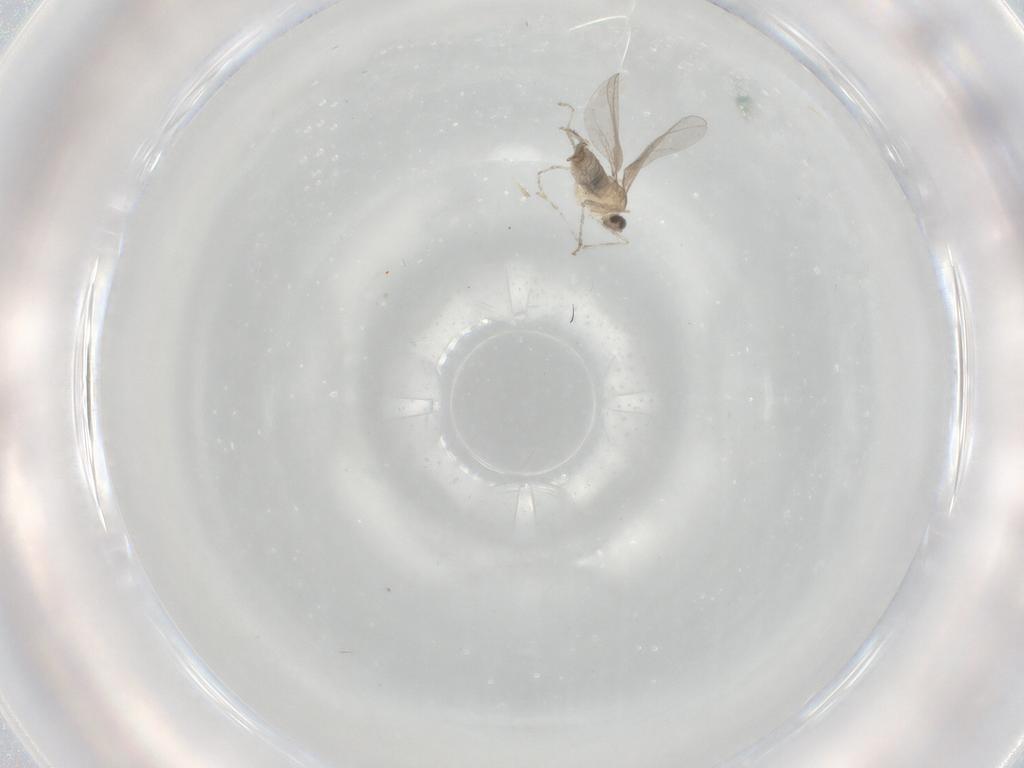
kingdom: Animalia
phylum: Arthropoda
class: Insecta
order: Diptera
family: Cecidomyiidae
